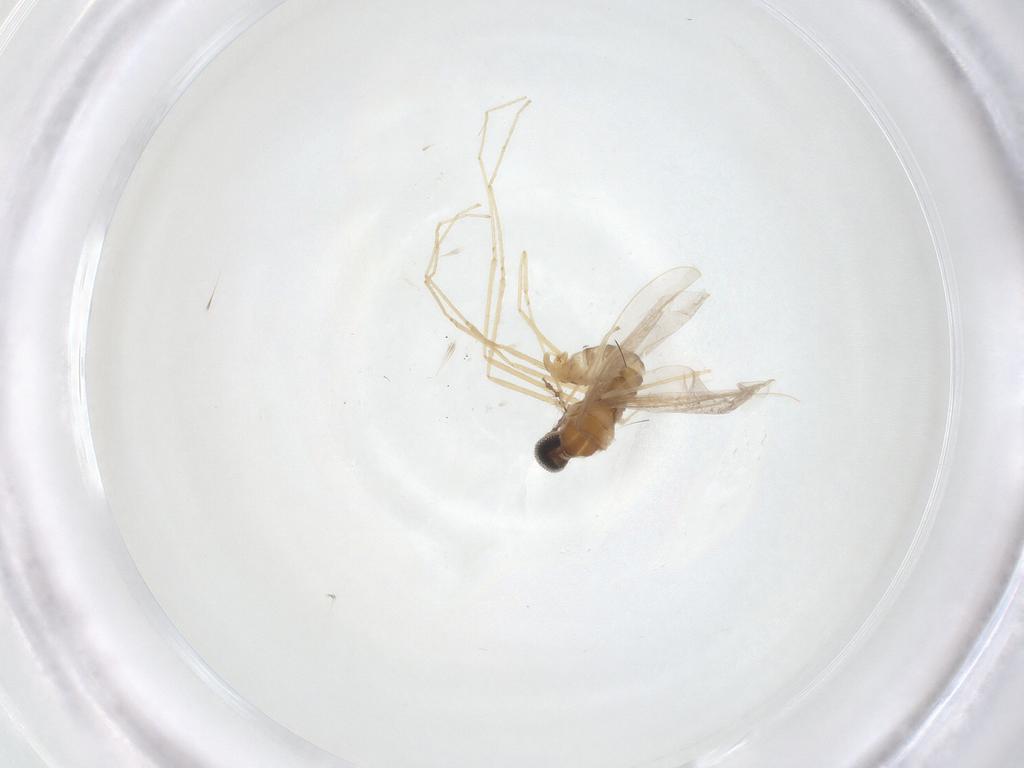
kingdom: Animalia
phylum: Arthropoda
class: Insecta
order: Diptera
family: Cecidomyiidae
